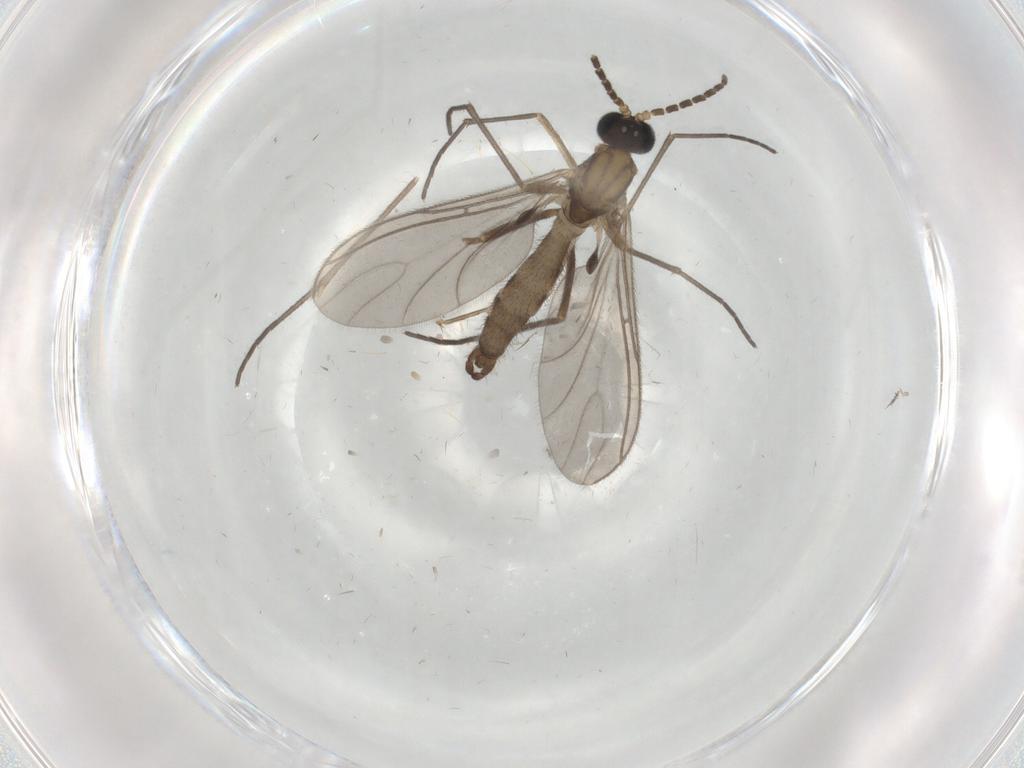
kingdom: Animalia
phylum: Arthropoda
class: Insecta
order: Diptera
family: Sciaridae
